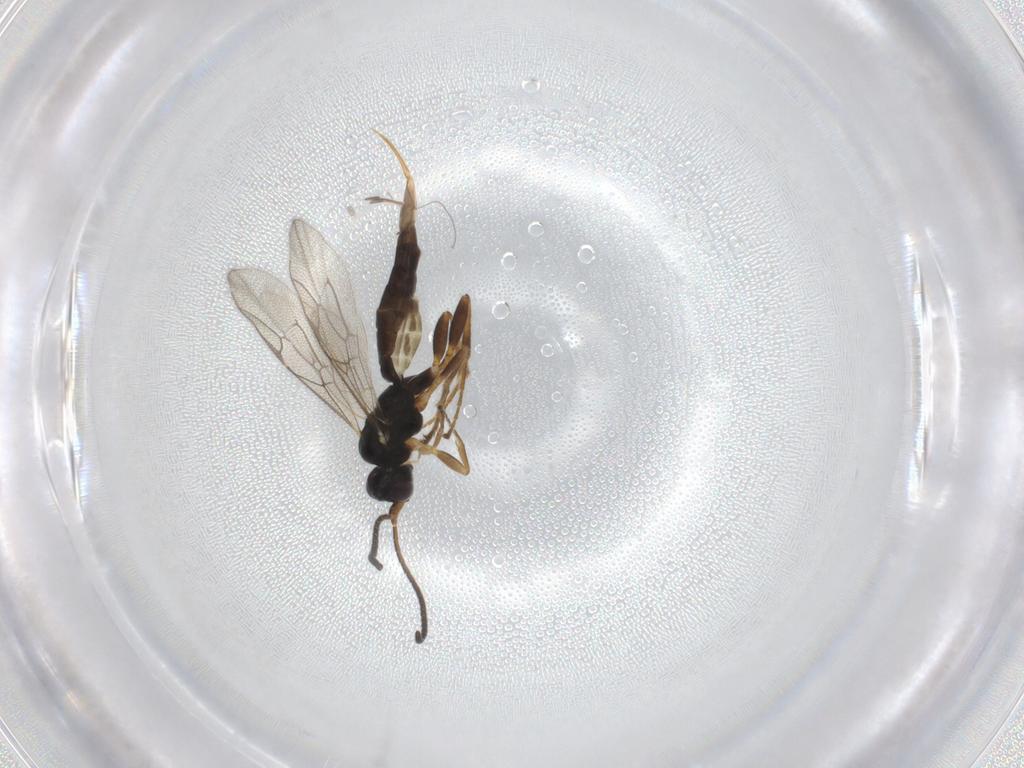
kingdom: Animalia
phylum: Arthropoda
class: Insecta
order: Hymenoptera
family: Ichneumonidae
